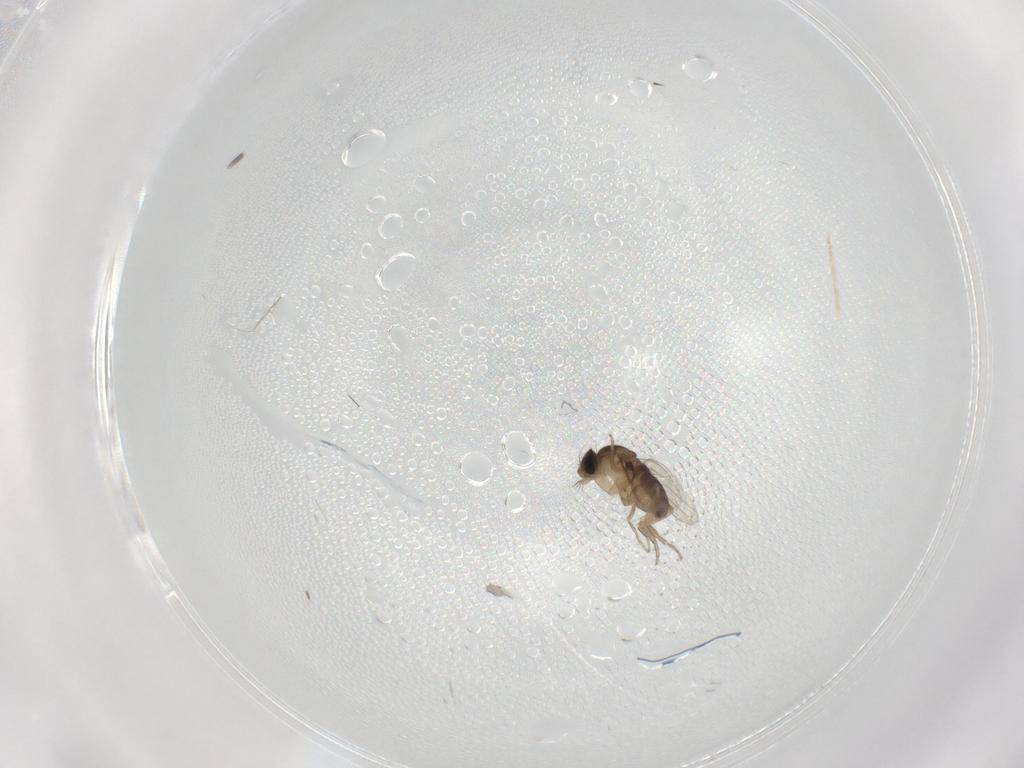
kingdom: Animalia
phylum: Arthropoda
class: Insecta
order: Diptera
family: Phoridae
